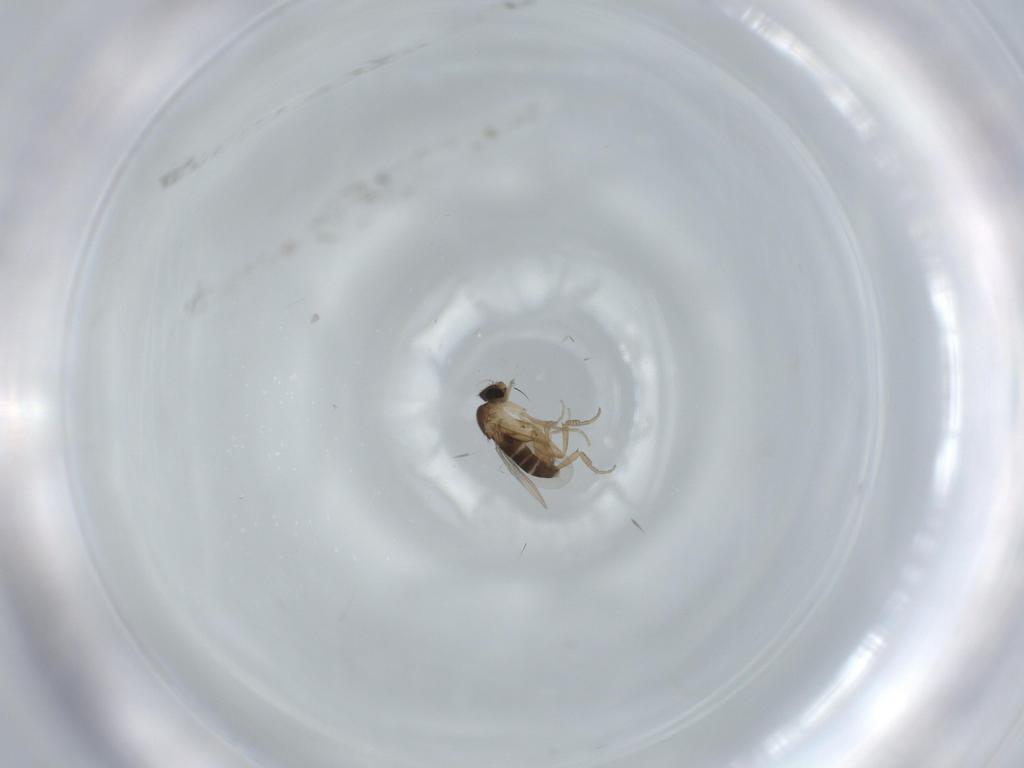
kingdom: Animalia
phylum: Arthropoda
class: Insecta
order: Diptera
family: Phoridae
